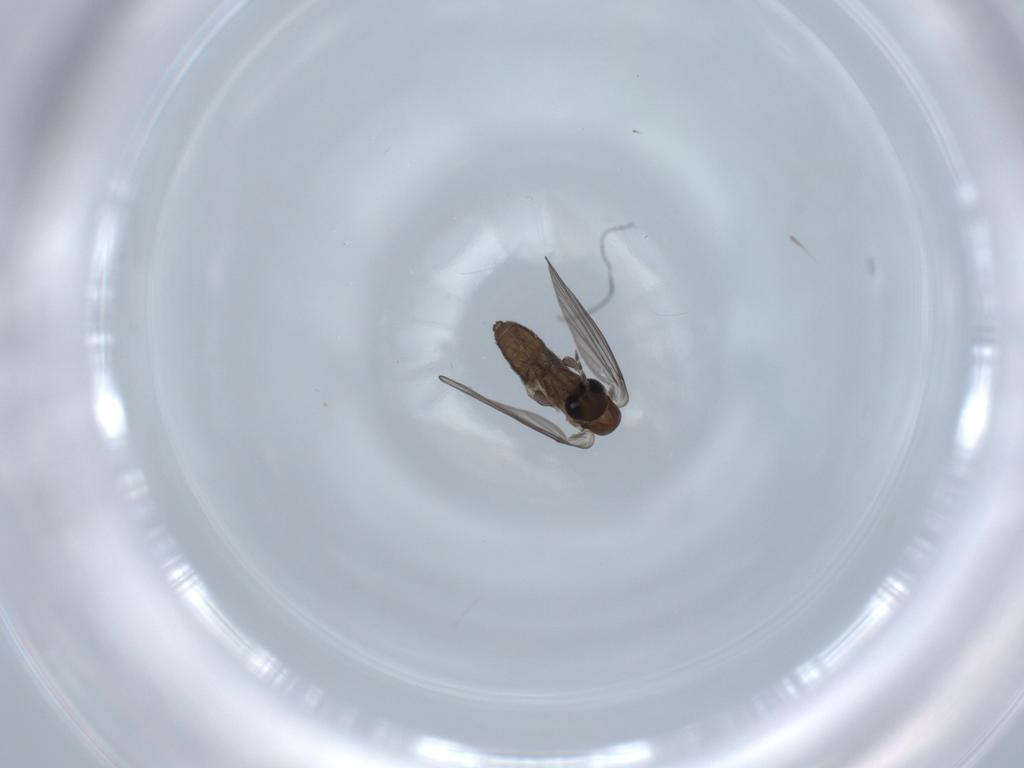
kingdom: Animalia
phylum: Arthropoda
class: Insecta
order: Diptera
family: Psychodidae
